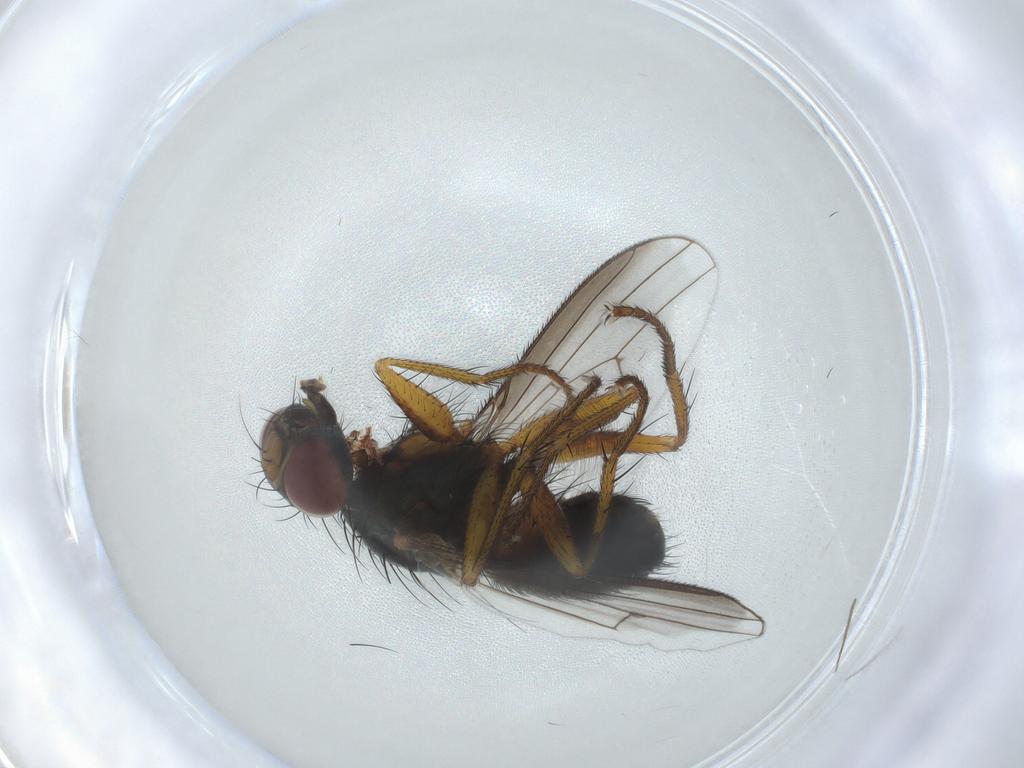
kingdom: Animalia
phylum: Arthropoda
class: Insecta
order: Diptera
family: Muscidae
